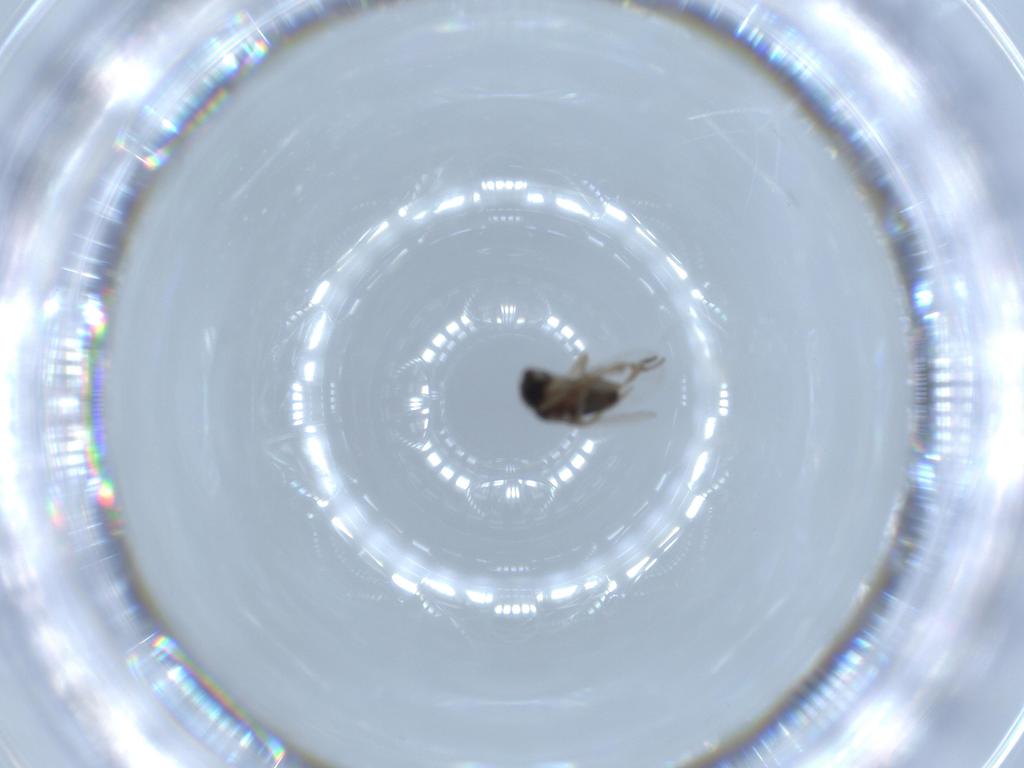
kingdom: Animalia
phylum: Arthropoda
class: Insecta
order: Diptera
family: Phoridae
